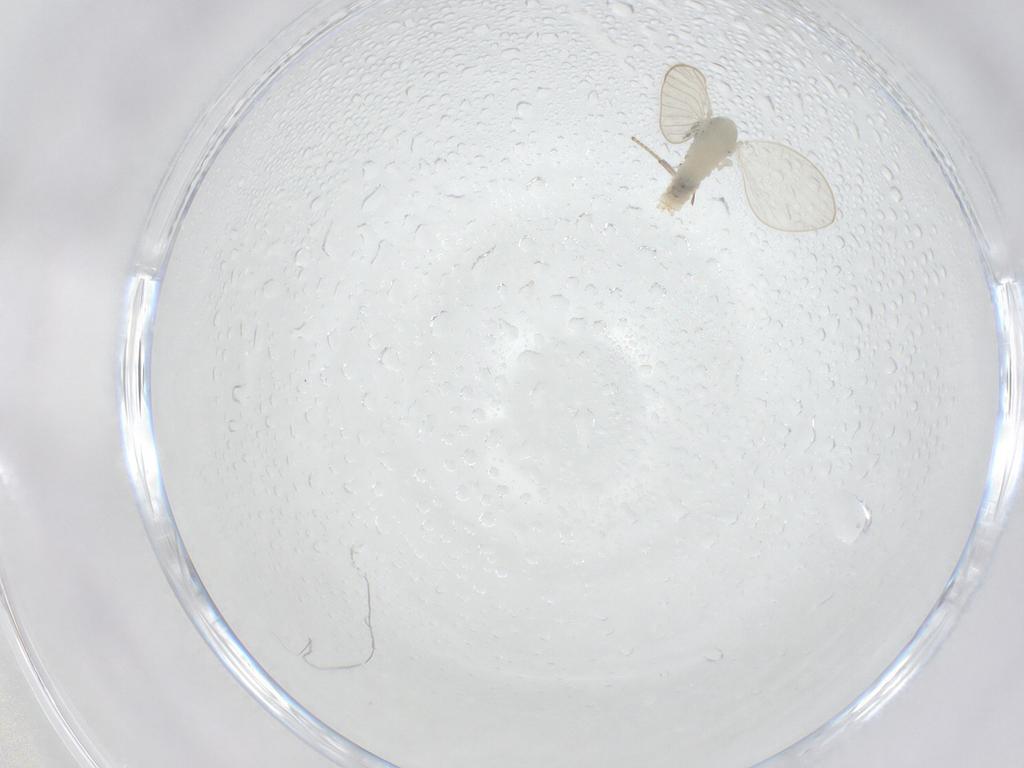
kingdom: Animalia
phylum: Arthropoda
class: Insecta
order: Diptera
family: Psychodidae
